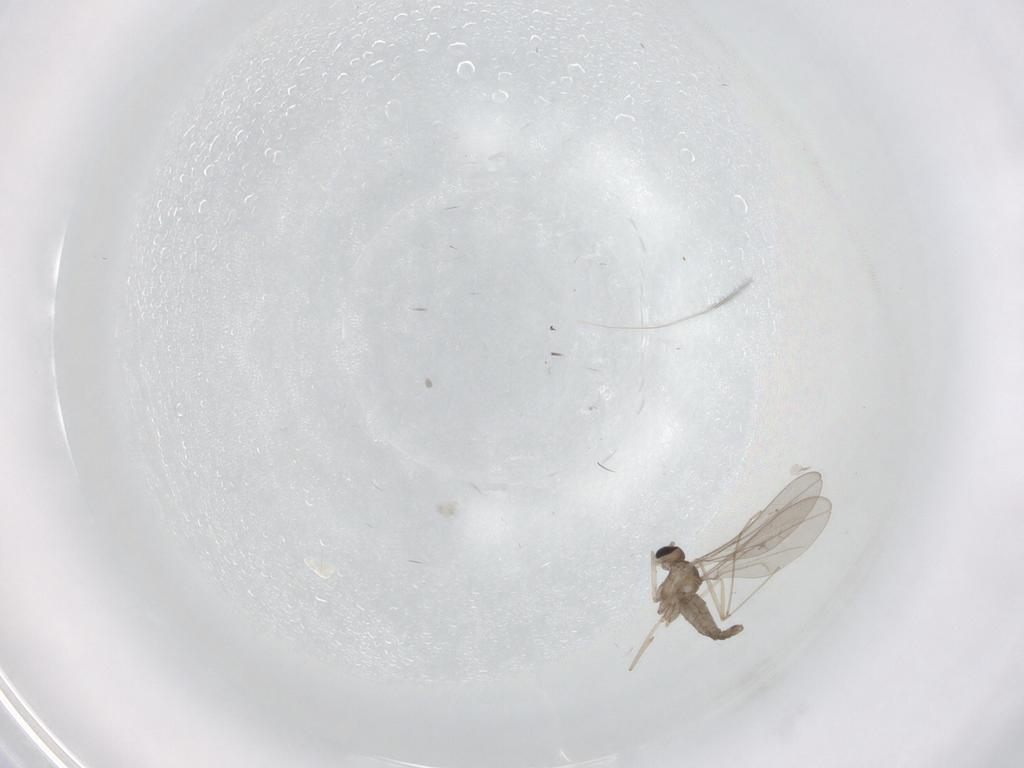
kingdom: Animalia
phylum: Arthropoda
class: Insecta
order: Diptera
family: Cecidomyiidae
